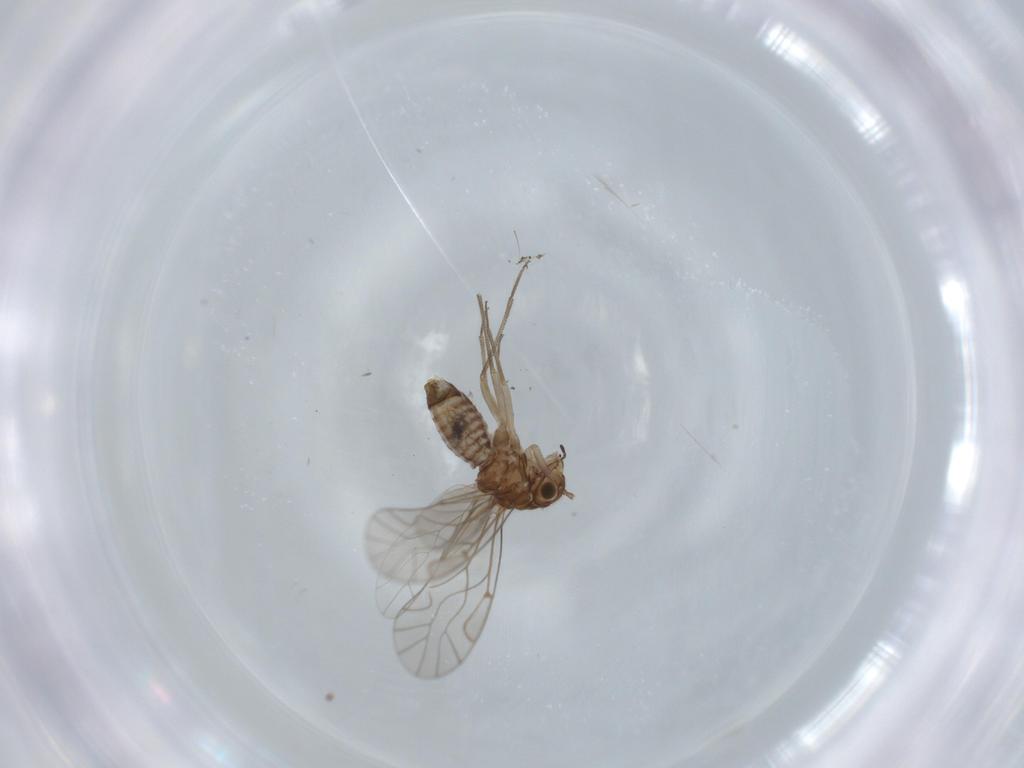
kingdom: Animalia
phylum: Arthropoda
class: Insecta
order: Psocodea
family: Lachesillidae
